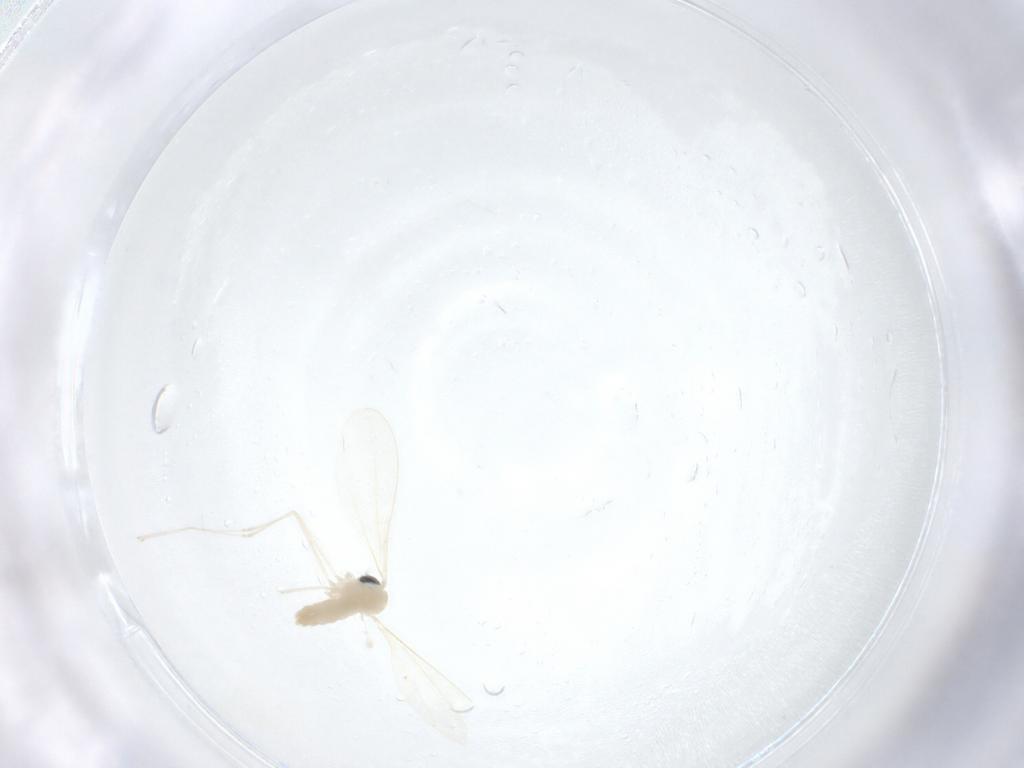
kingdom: Animalia
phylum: Arthropoda
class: Insecta
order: Diptera
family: Cecidomyiidae
